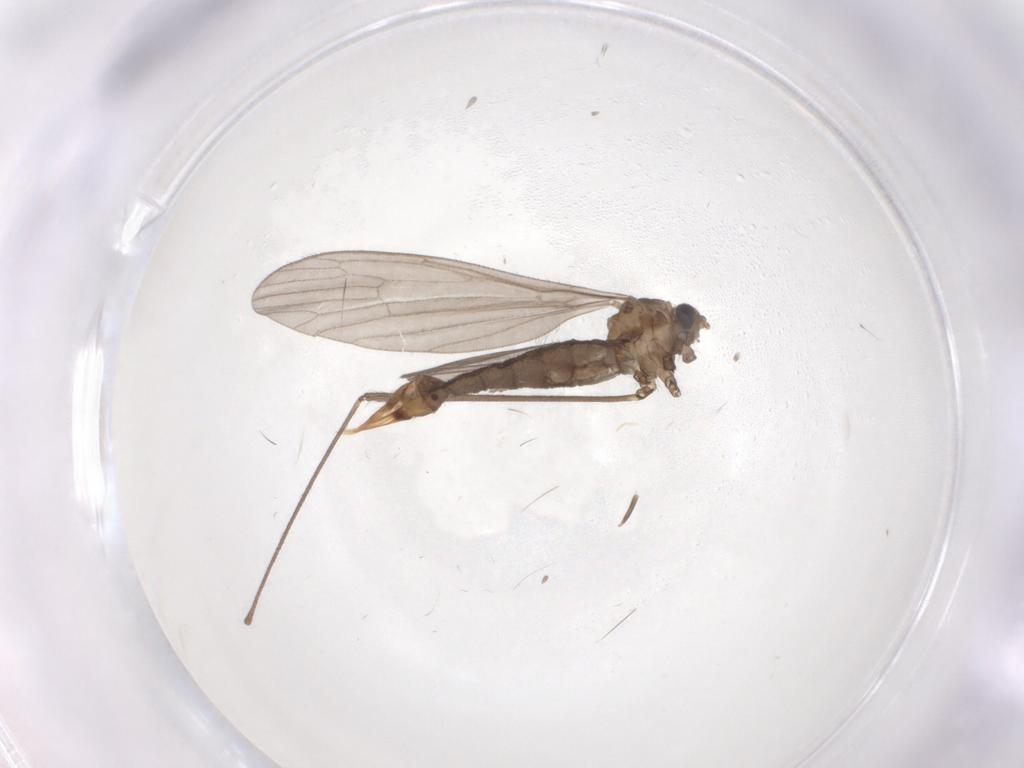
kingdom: Animalia
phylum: Arthropoda
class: Insecta
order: Diptera
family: Limoniidae
